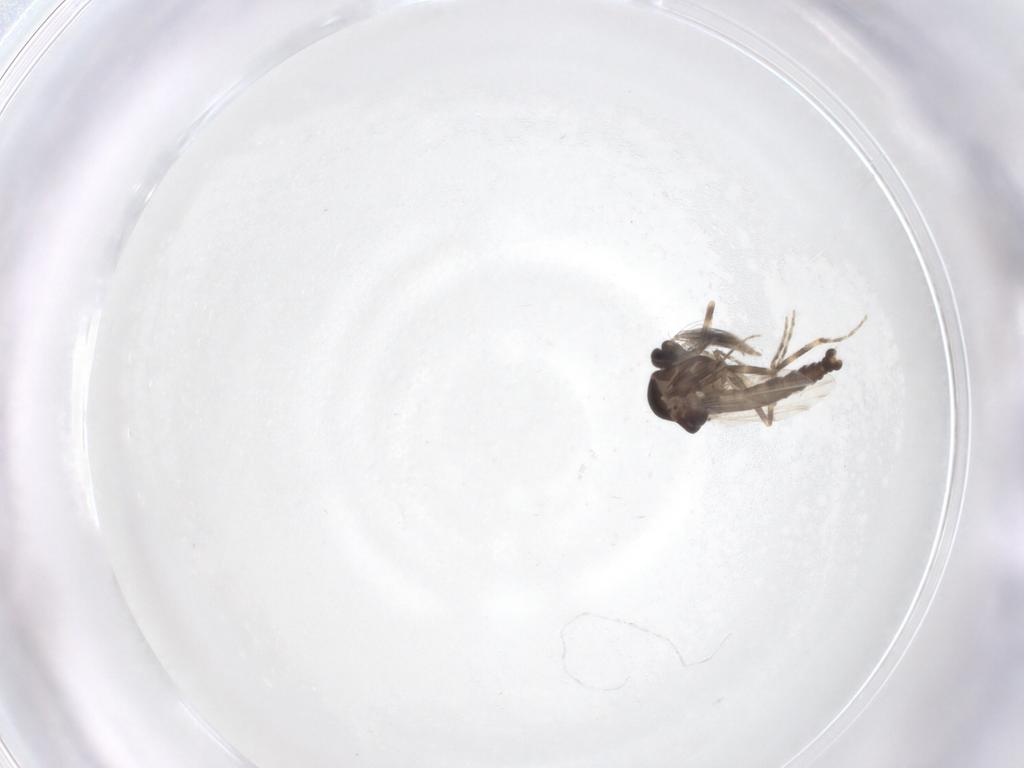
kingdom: Animalia
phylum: Arthropoda
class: Insecta
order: Diptera
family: Ceratopogonidae
